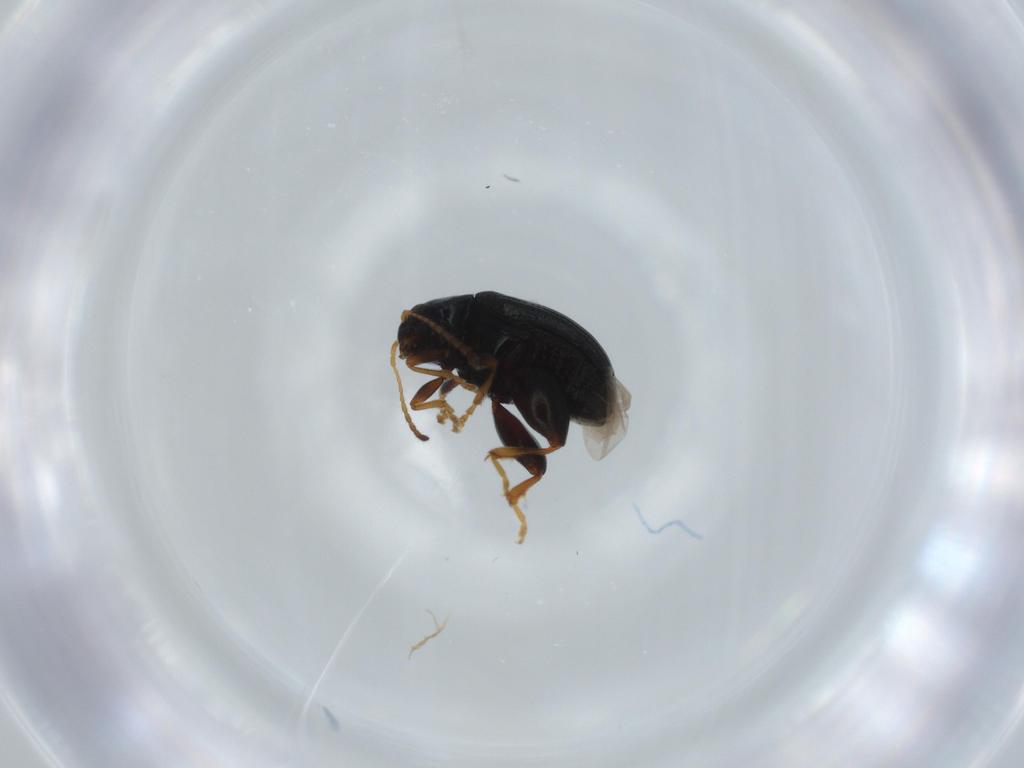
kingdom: Animalia
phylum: Arthropoda
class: Insecta
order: Coleoptera
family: Chrysomelidae
